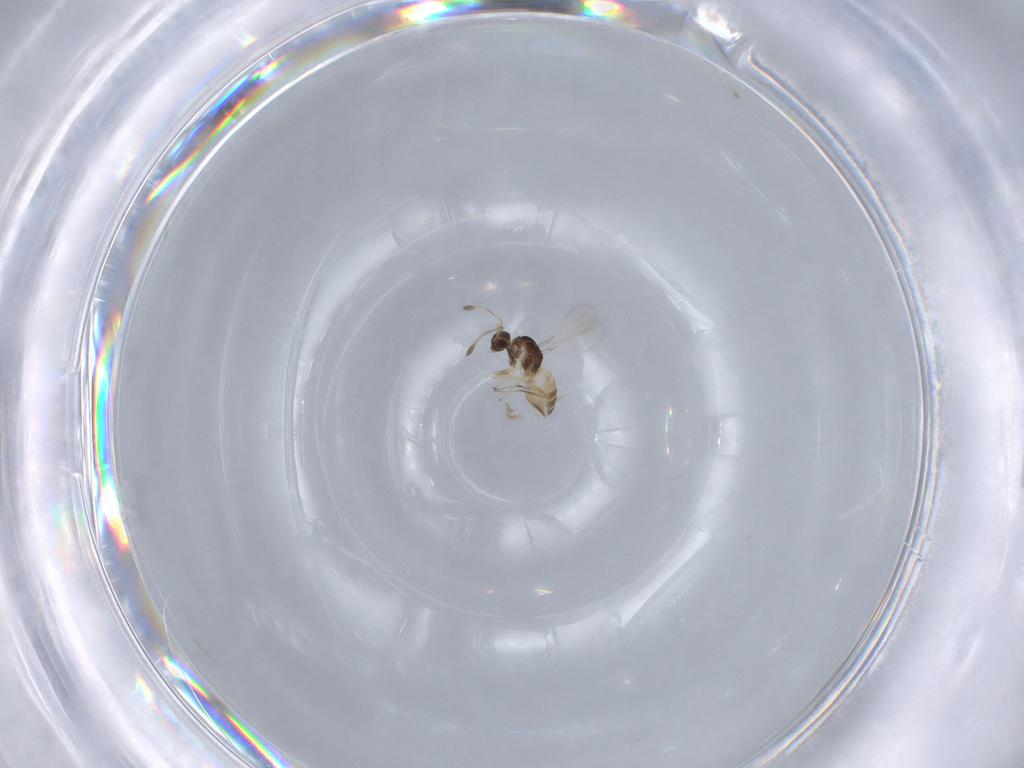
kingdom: Animalia
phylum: Arthropoda
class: Insecta
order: Hymenoptera
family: Mymaridae
